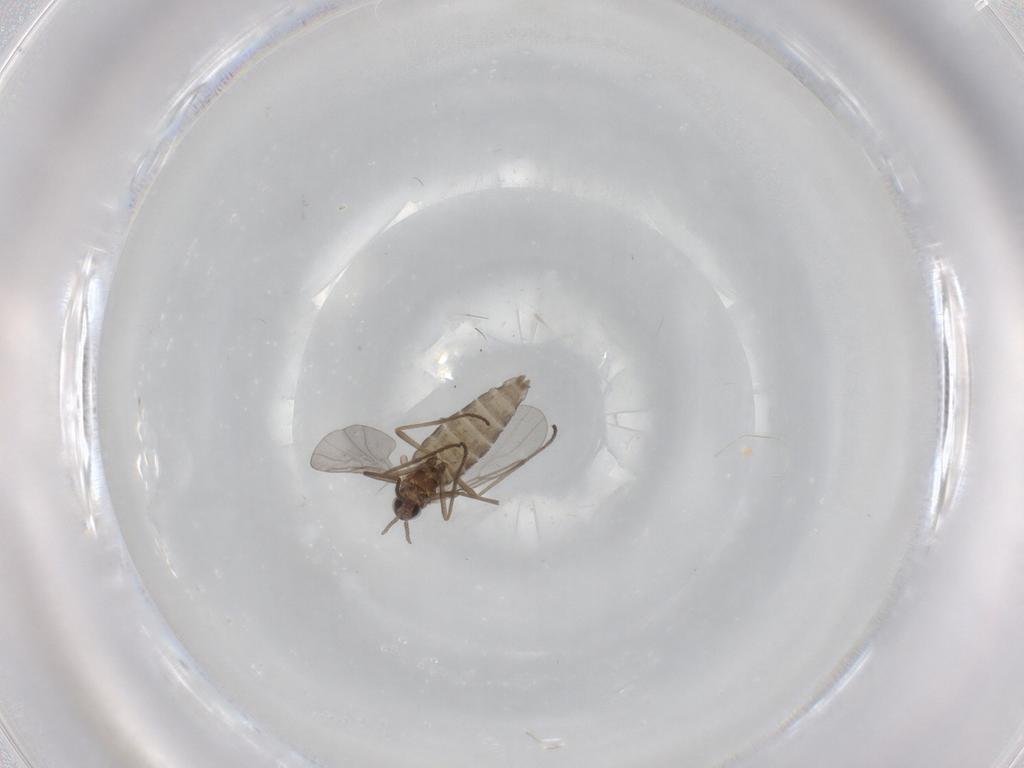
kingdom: Animalia
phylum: Arthropoda
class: Insecta
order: Diptera
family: Cecidomyiidae
